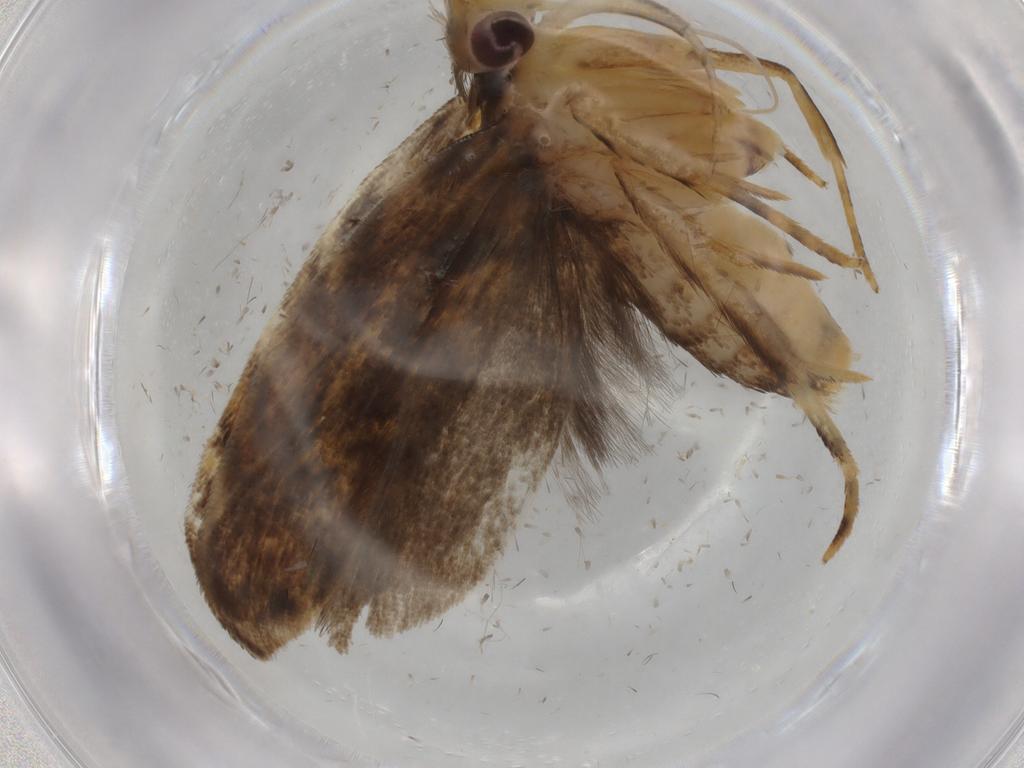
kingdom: Animalia
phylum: Arthropoda
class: Insecta
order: Lepidoptera
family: Gelechiidae
